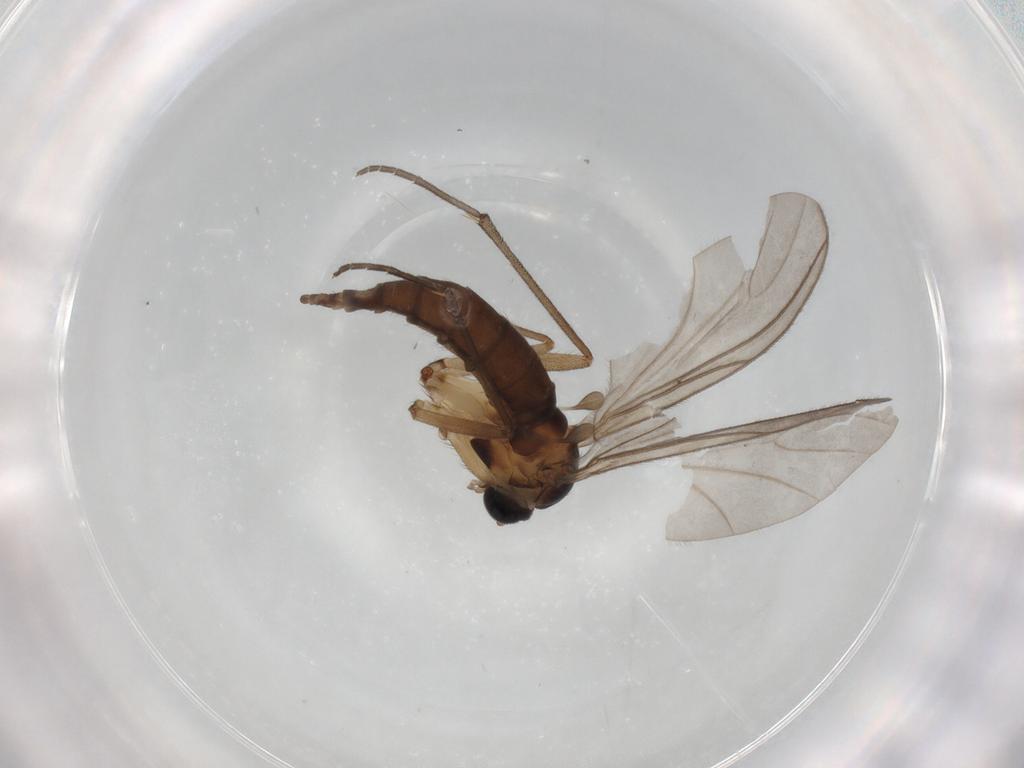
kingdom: Animalia
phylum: Arthropoda
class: Insecta
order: Diptera
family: Sciaridae
